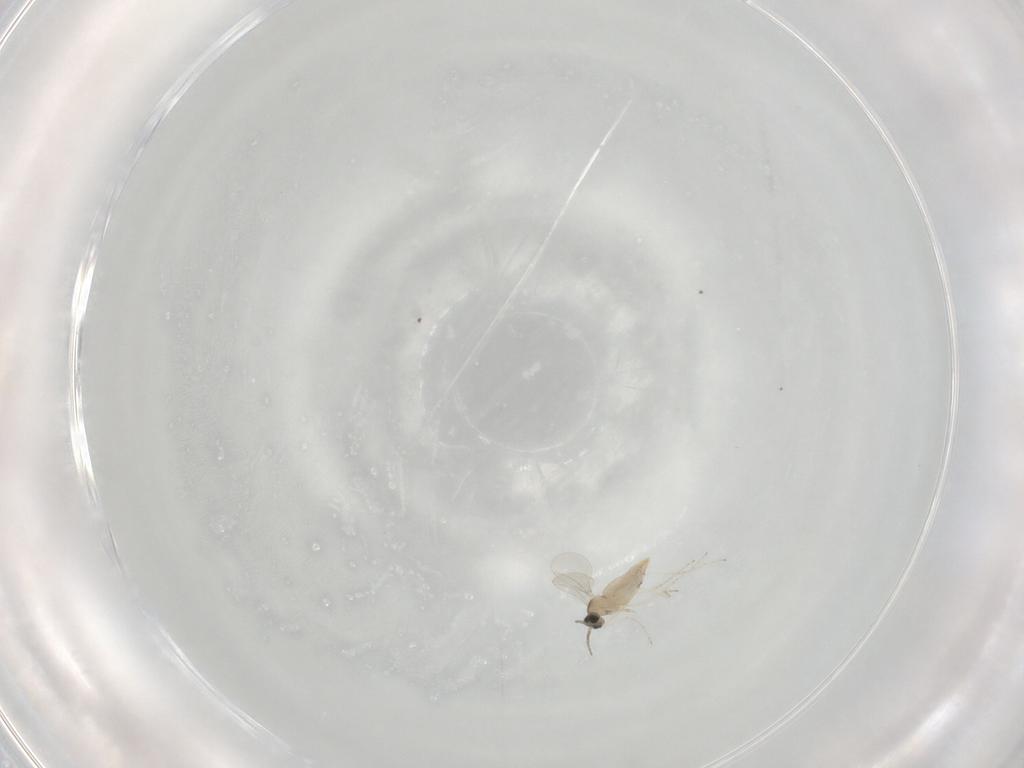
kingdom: Animalia
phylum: Arthropoda
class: Insecta
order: Diptera
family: Cecidomyiidae
